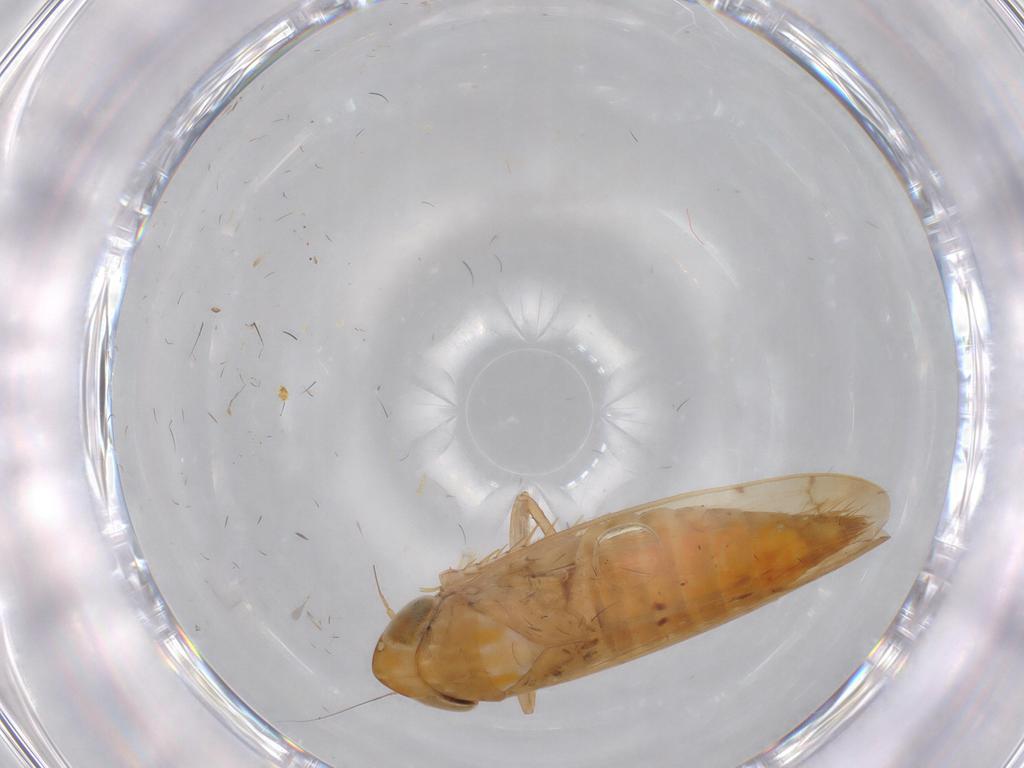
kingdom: Animalia
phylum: Arthropoda
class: Insecta
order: Hemiptera
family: Cicadellidae
